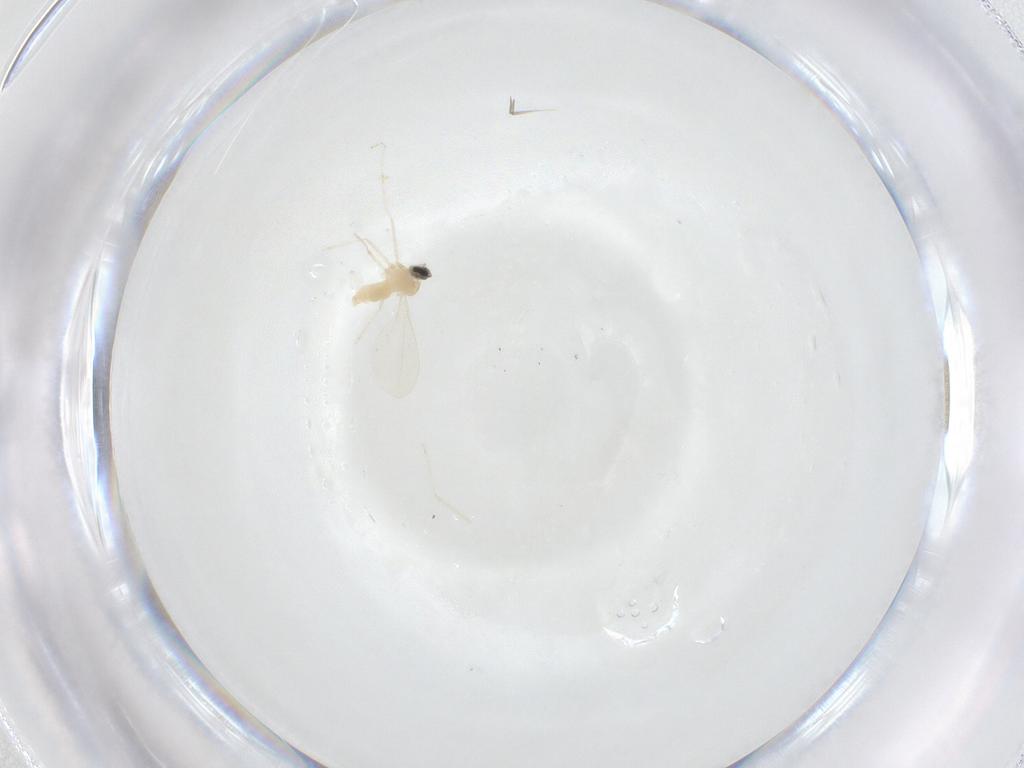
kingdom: Animalia
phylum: Arthropoda
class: Insecta
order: Diptera
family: Cecidomyiidae
